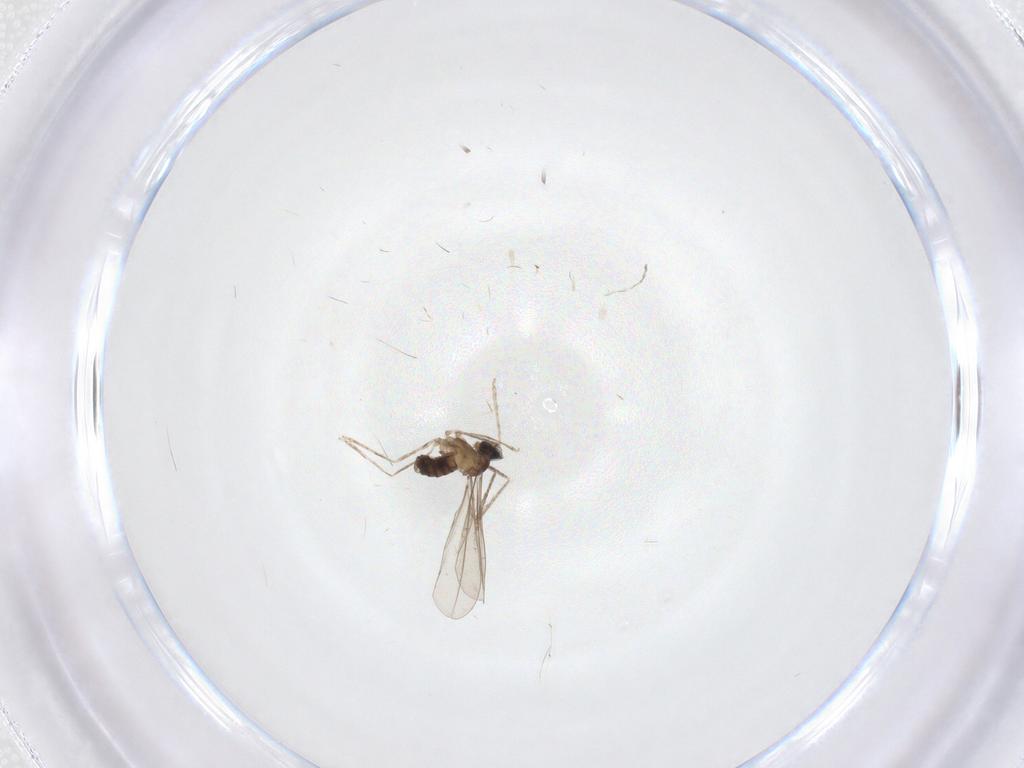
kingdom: Animalia
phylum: Arthropoda
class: Insecta
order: Diptera
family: Cecidomyiidae
